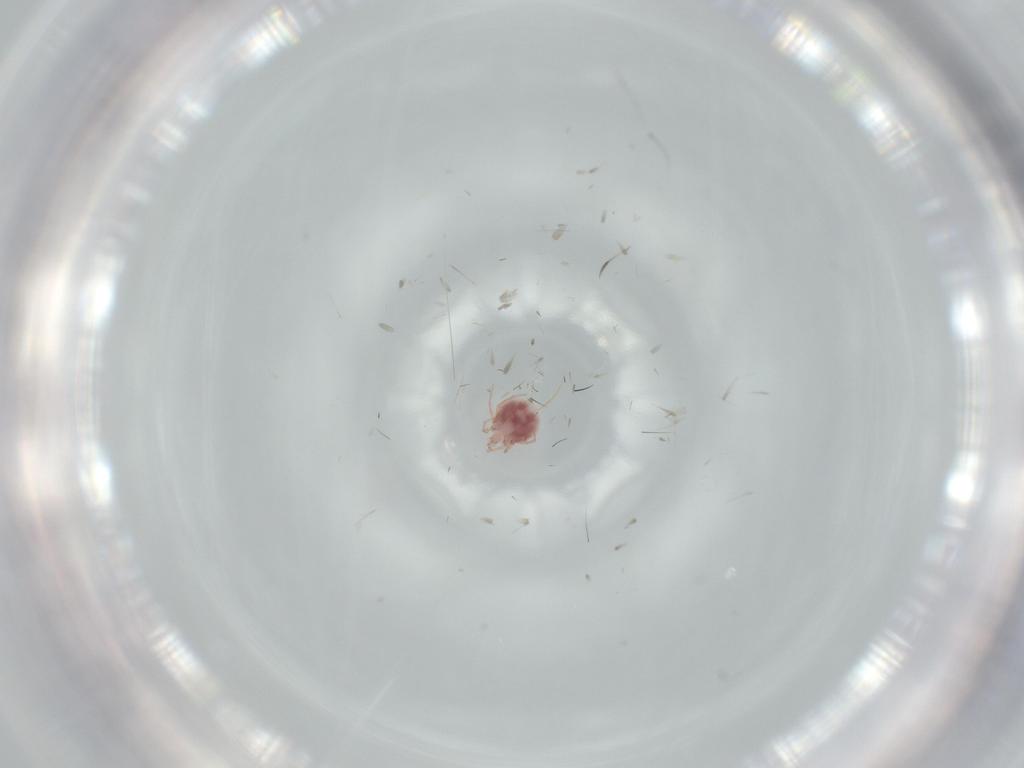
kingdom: Animalia
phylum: Arthropoda
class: Arachnida
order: Trombidiformes
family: Pionidae
